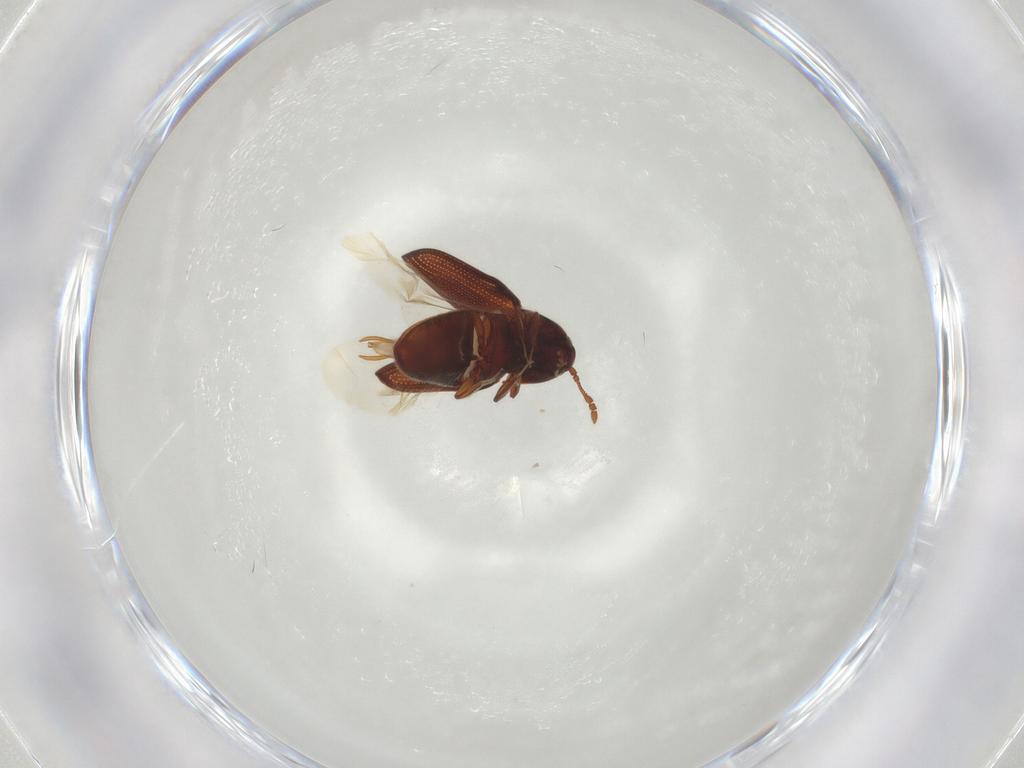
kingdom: Animalia
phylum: Arthropoda
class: Insecta
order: Coleoptera
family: Throscidae
